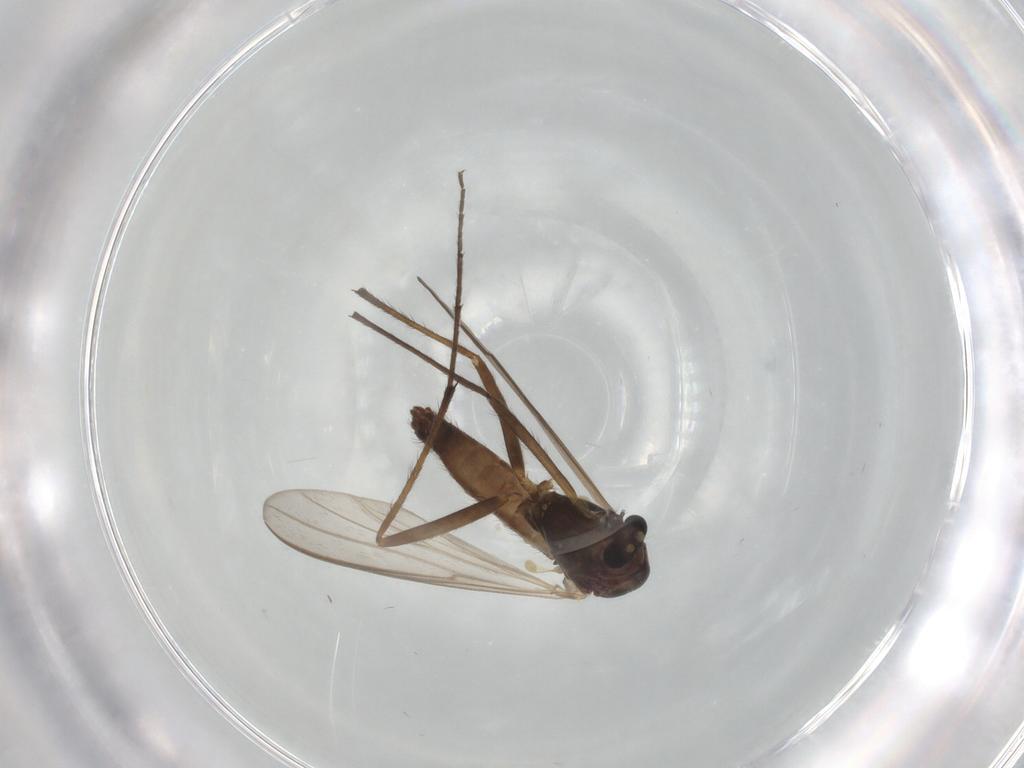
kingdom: Animalia
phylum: Arthropoda
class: Insecta
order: Diptera
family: Chironomidae
